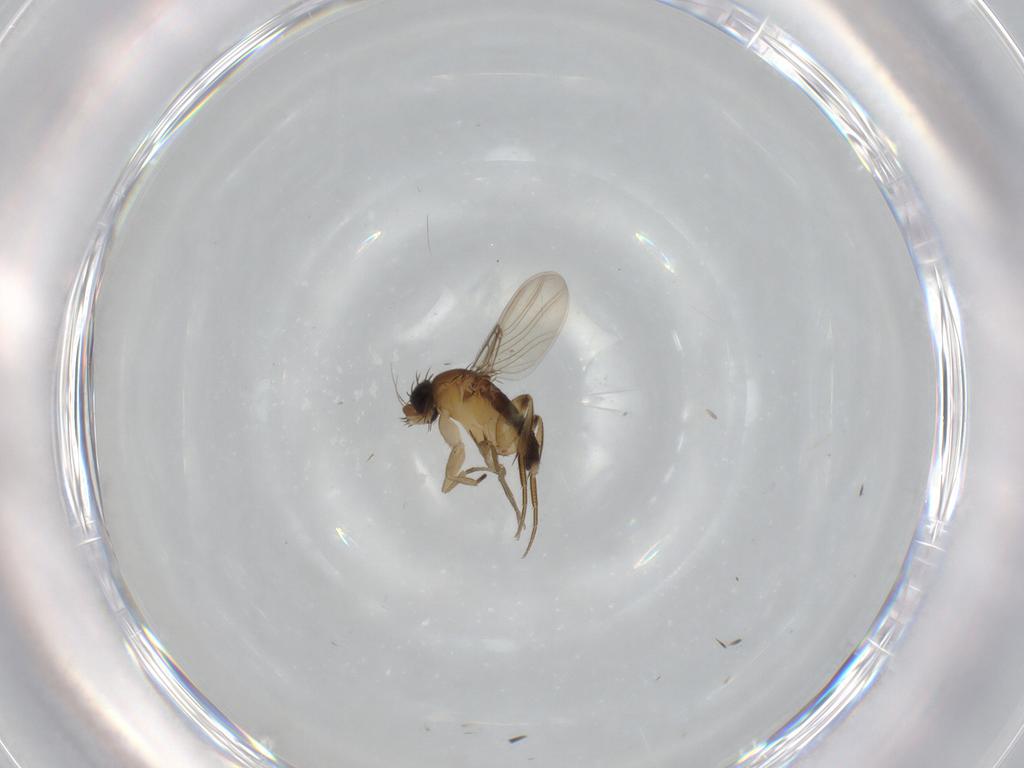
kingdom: Animalia
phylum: Arthropoda
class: Insecta
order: Diptera
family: Phoridae
